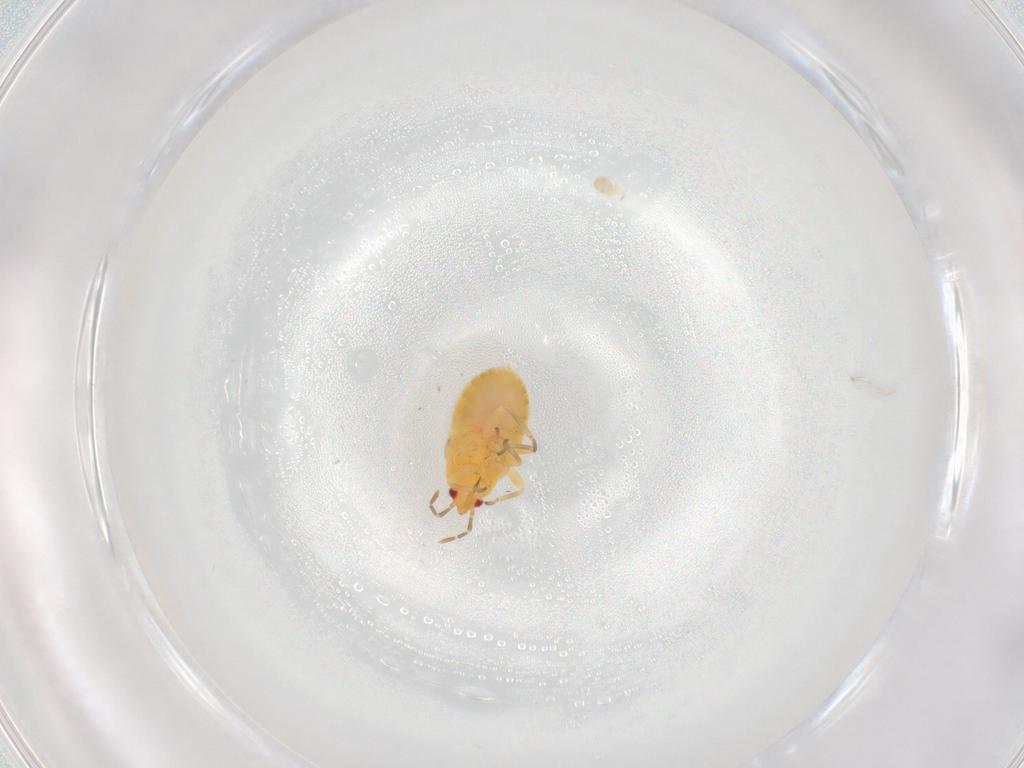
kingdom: Animalia
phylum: Arthropoda
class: Insecta
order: Hemiptera
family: Anthocoridae
